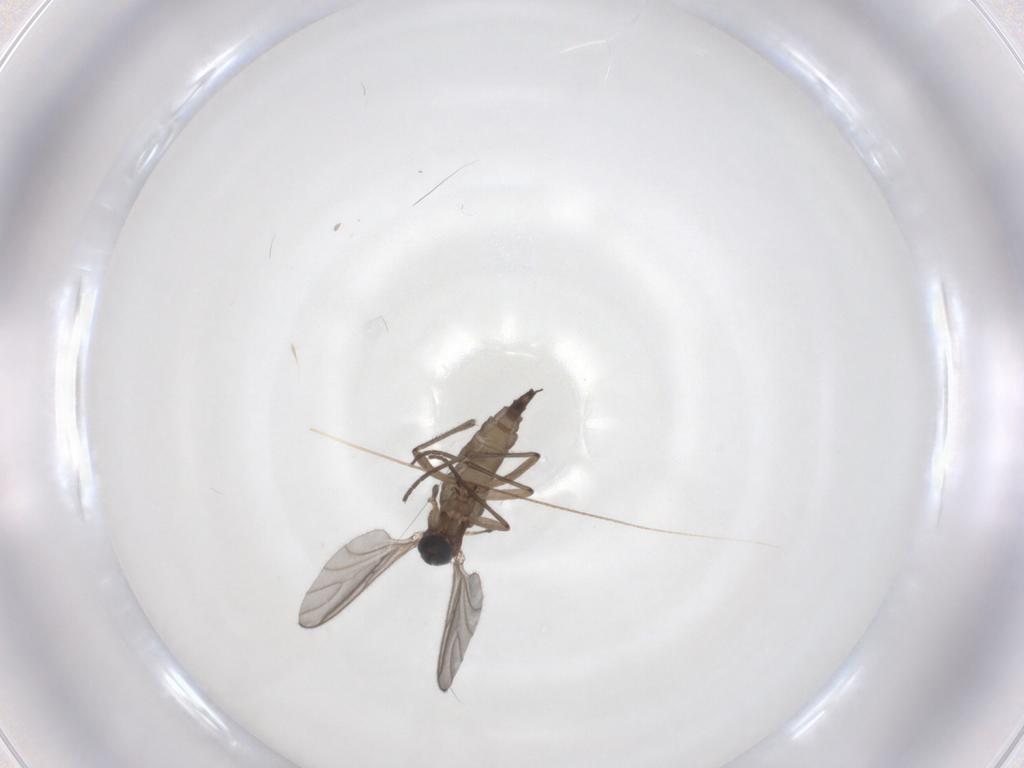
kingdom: Animalia
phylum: Arthropoda
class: Insecta
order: Diptera
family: Sciaridae
